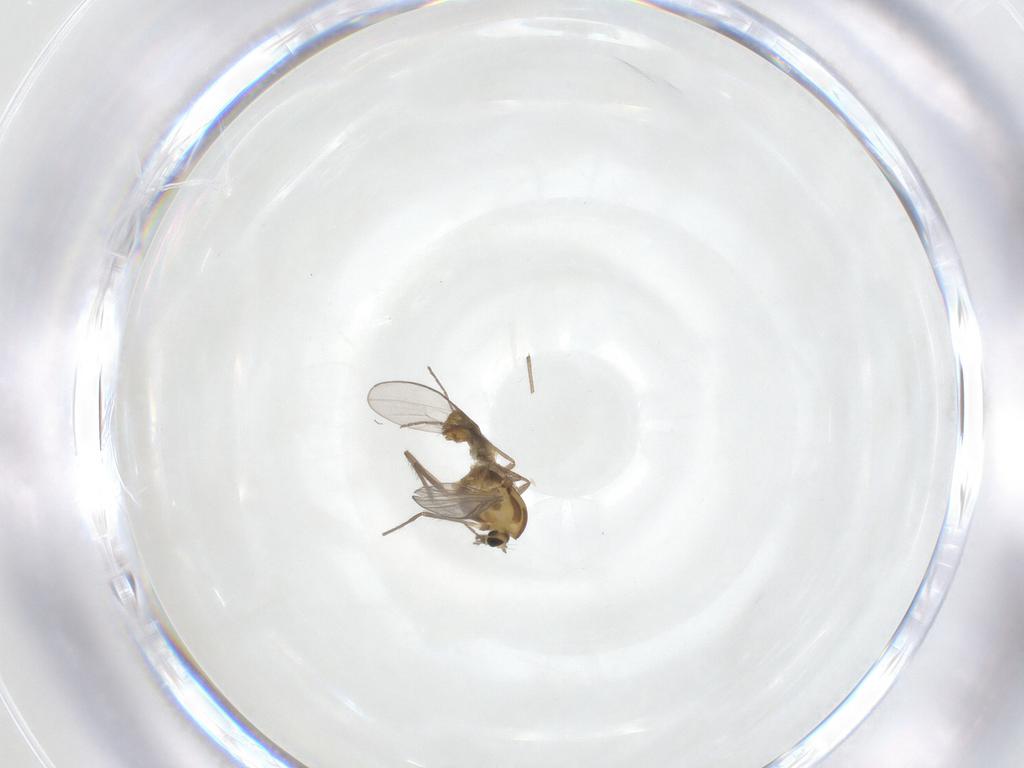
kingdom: Animalia
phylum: Arthropoda
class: Insecta
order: Diptera
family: Chironomidae
